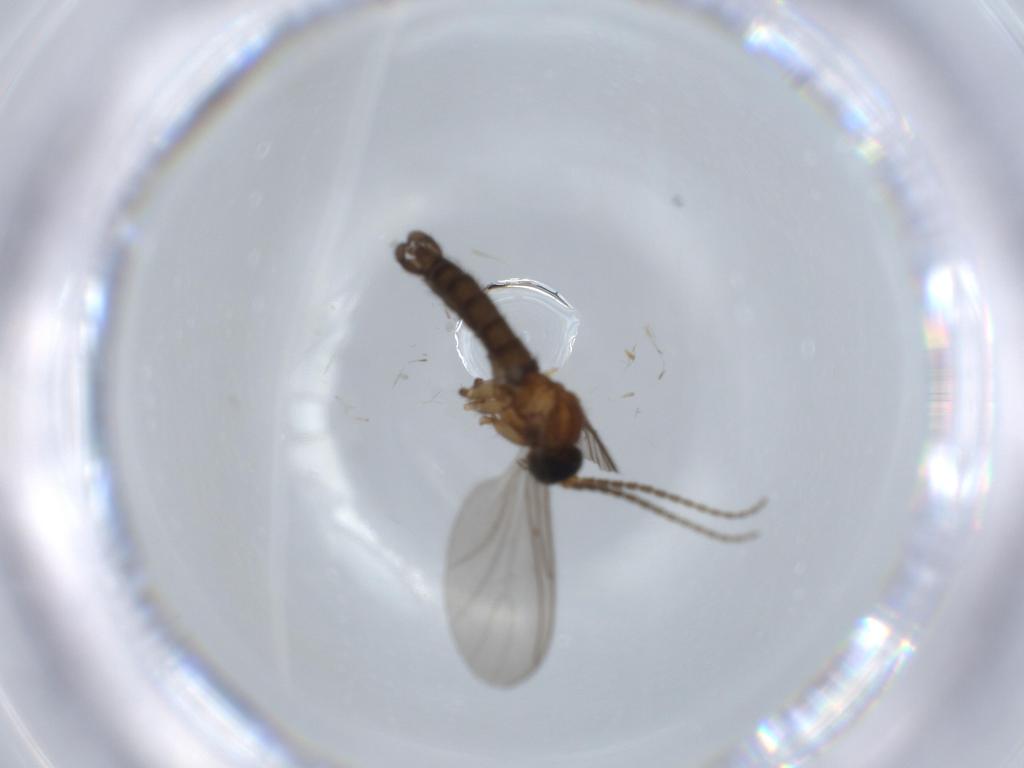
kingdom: Animalia
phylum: Arthropoda
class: Insecta
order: Diptera
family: Sciaridae
